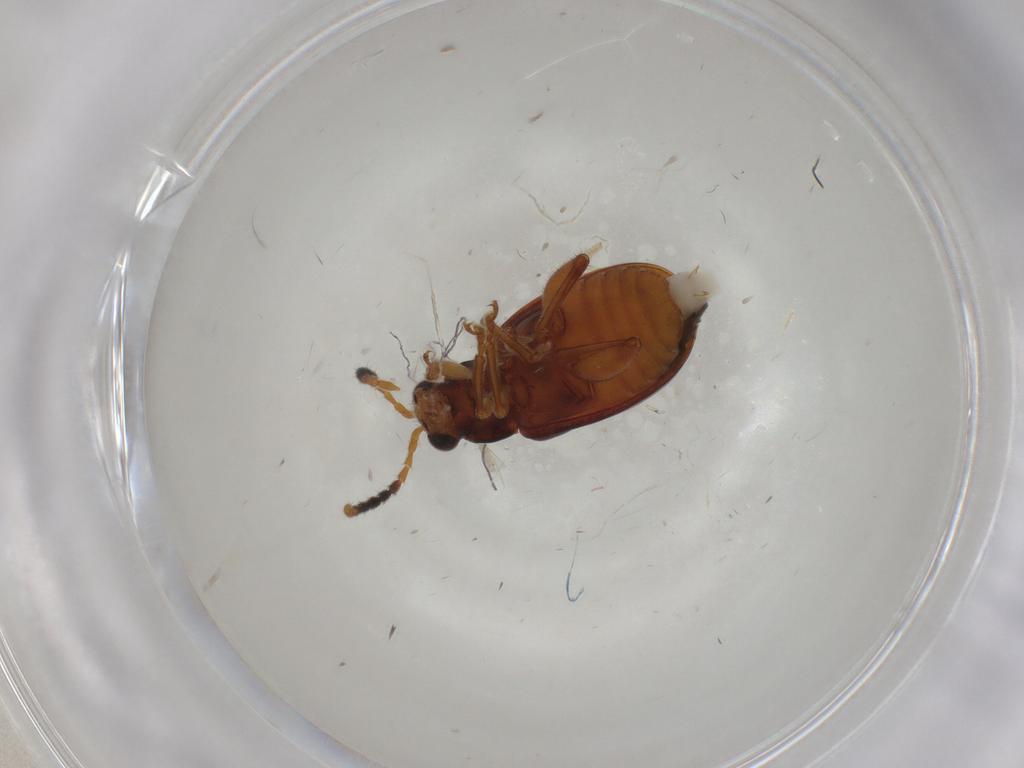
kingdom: Animalia
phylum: Arthropoda
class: Insecta
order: Coleoptera
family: Chrysomelidae
